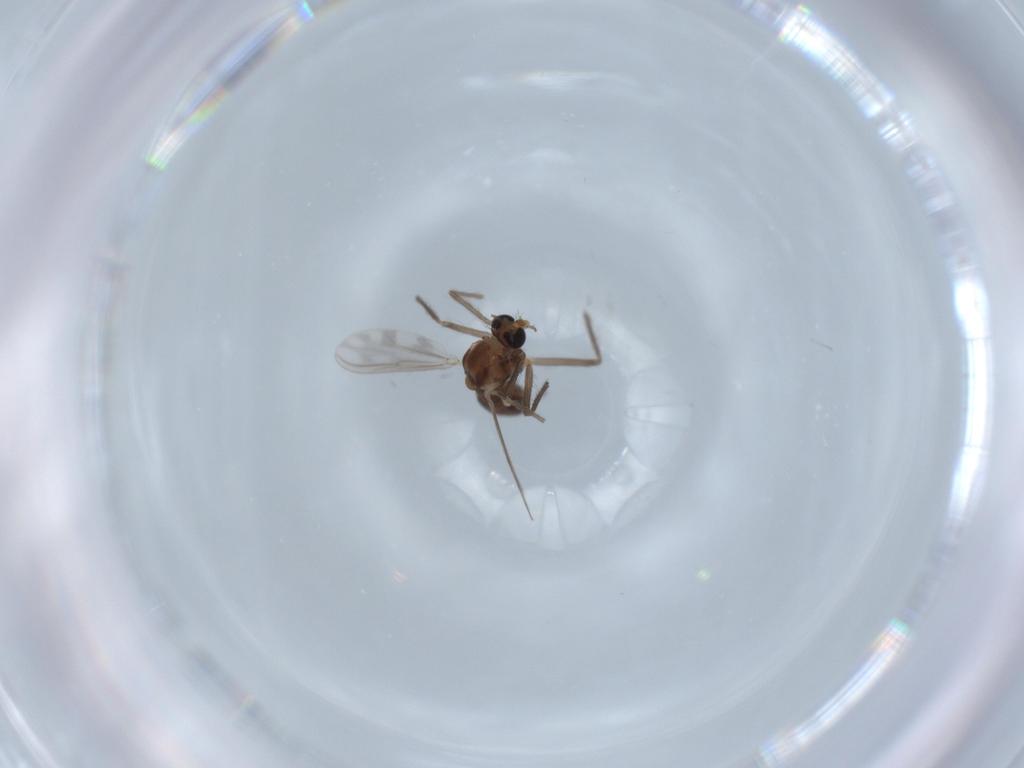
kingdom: Animalia
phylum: Arthropoda
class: Insecta
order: Diptera
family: Chironomidae
